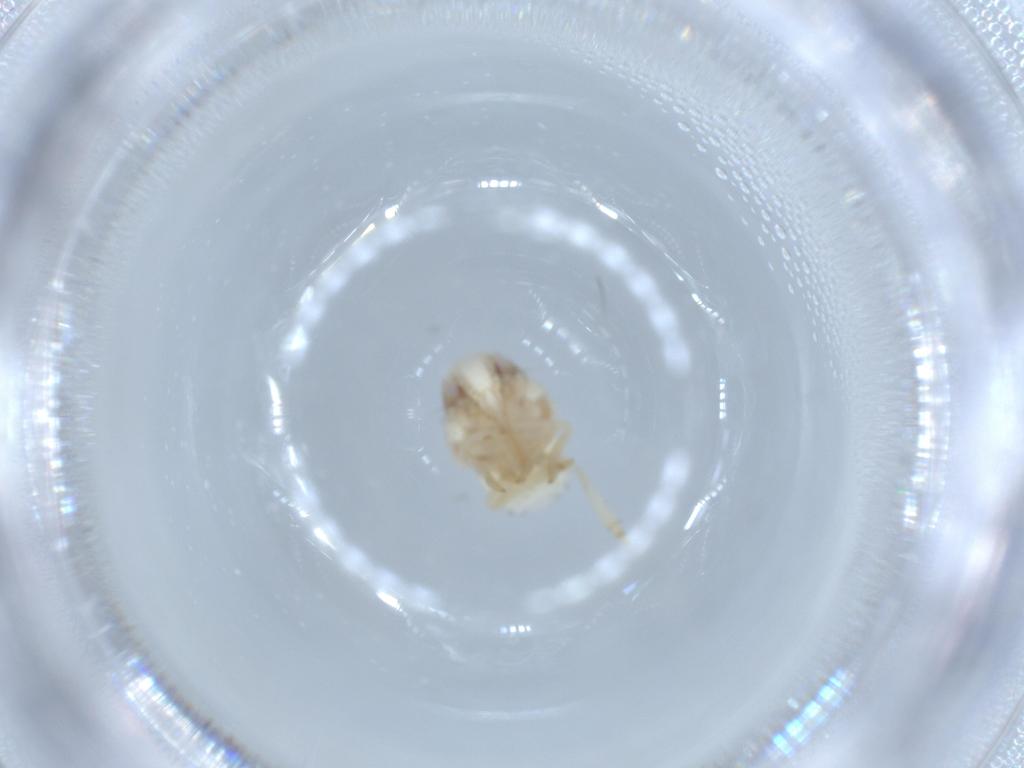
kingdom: Animalia
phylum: Arthropoda
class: Insecta
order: Hemiptera
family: Acanaloniidae
